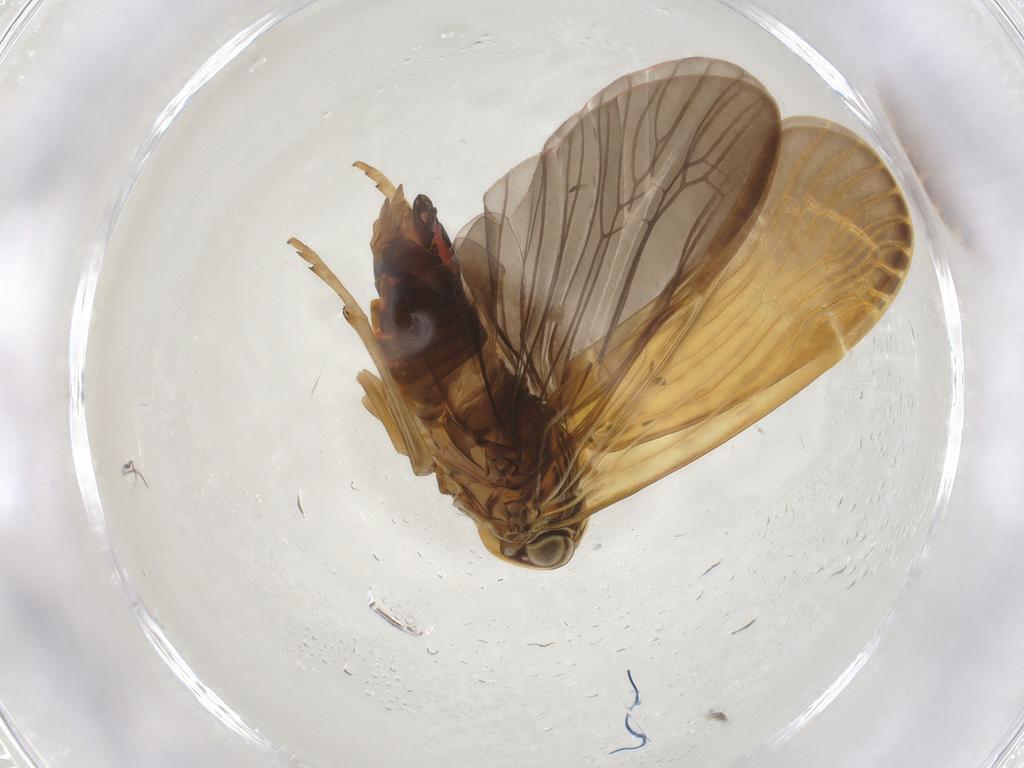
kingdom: Animalia
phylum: Arthropoda
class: Insecta
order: Hemiptera
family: Achilidae
